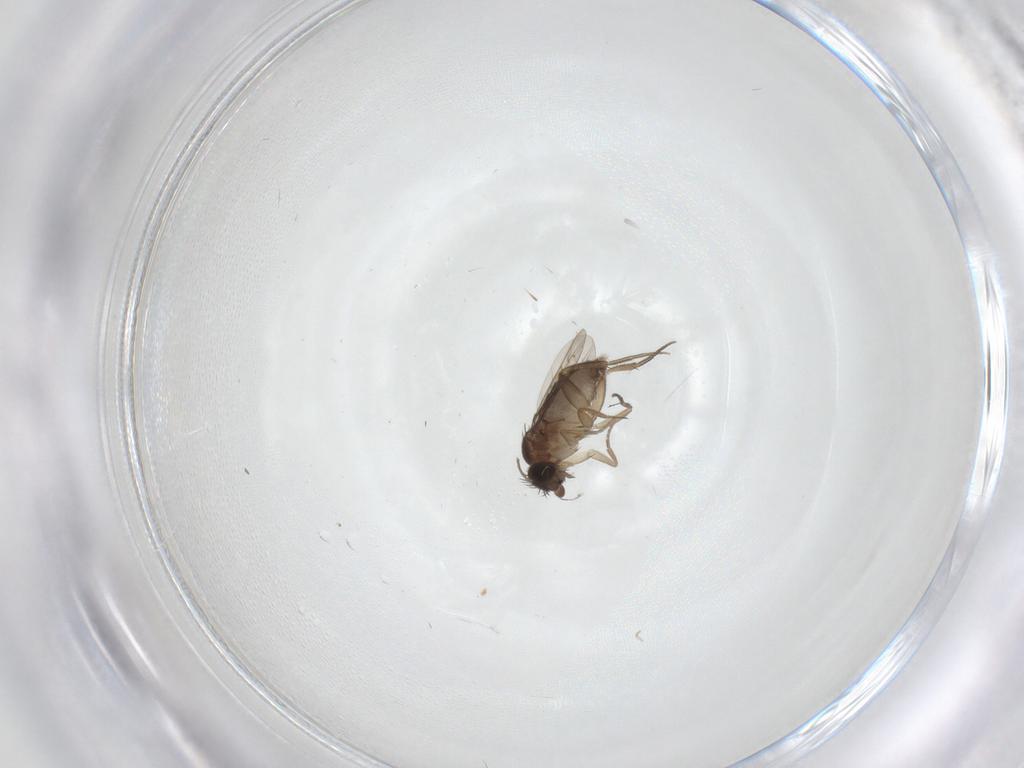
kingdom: Animalia
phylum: Arthropoda
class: Insecta
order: Diptera
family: Phoridae
